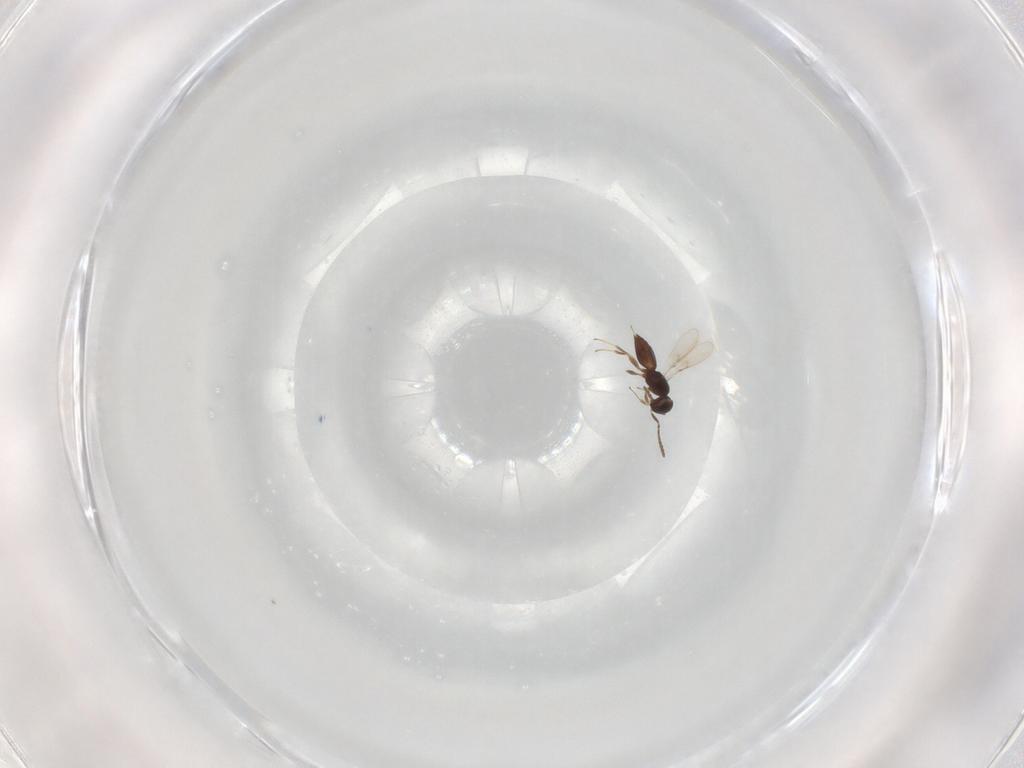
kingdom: Animalia
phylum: Arthropoda
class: Insecta
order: Hymenoptera
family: Scelionidae
